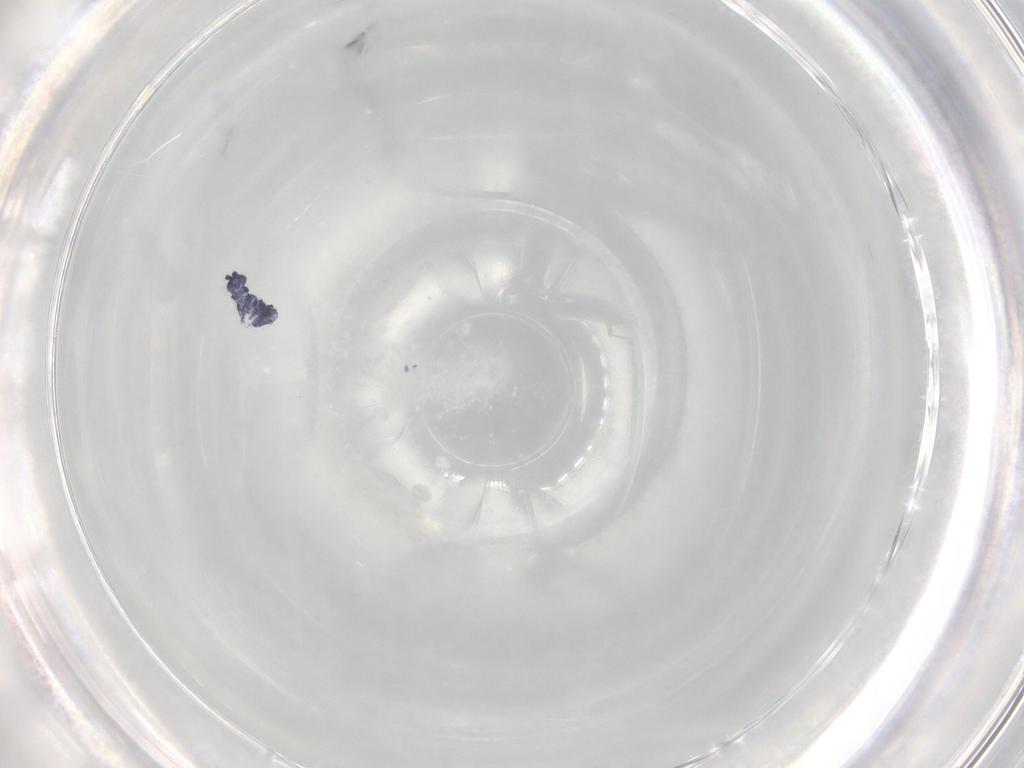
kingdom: Animalia
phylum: Arthropoda
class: Collembola
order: Poduromorpha
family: Hypogastruridae
